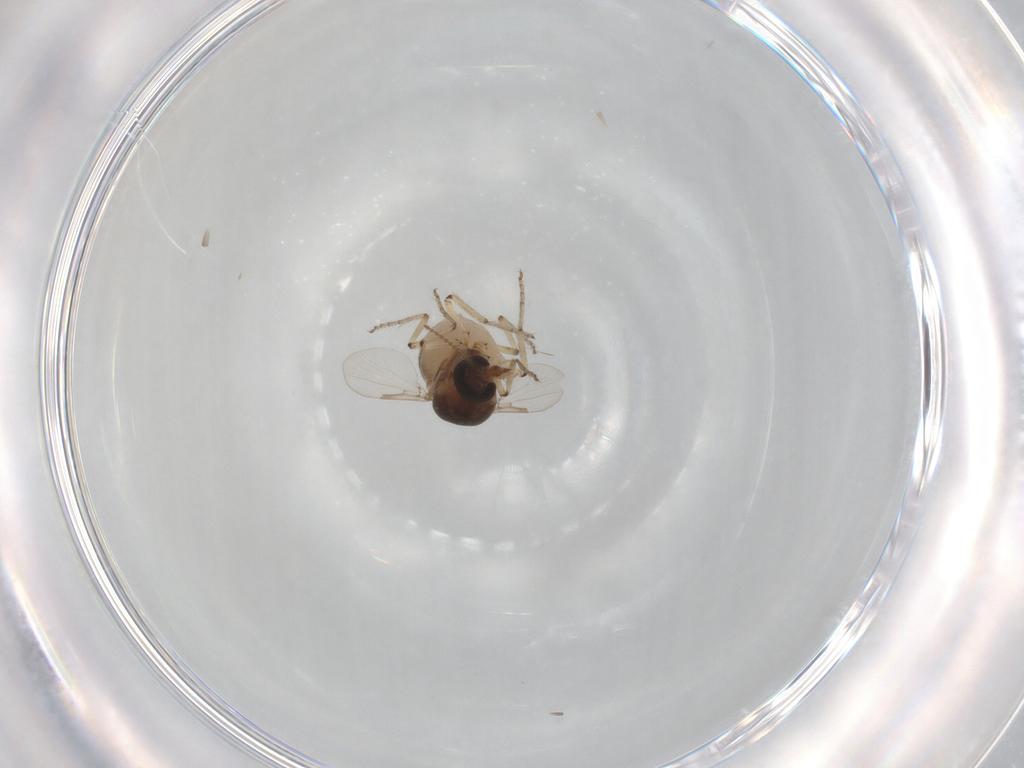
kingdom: Animalia
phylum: Arthropoda
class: Insecta
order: Diptera
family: Ceratopogonidae
